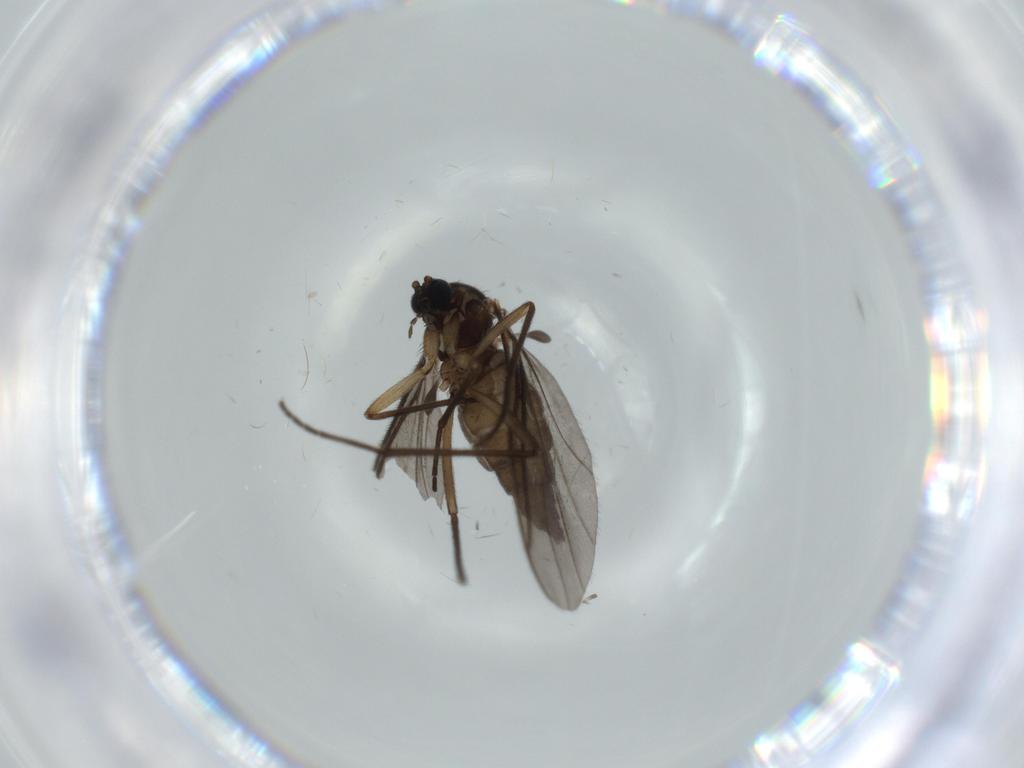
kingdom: Animalia
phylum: Arthropoda
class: Insecta
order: Diptera
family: Sciaridae
